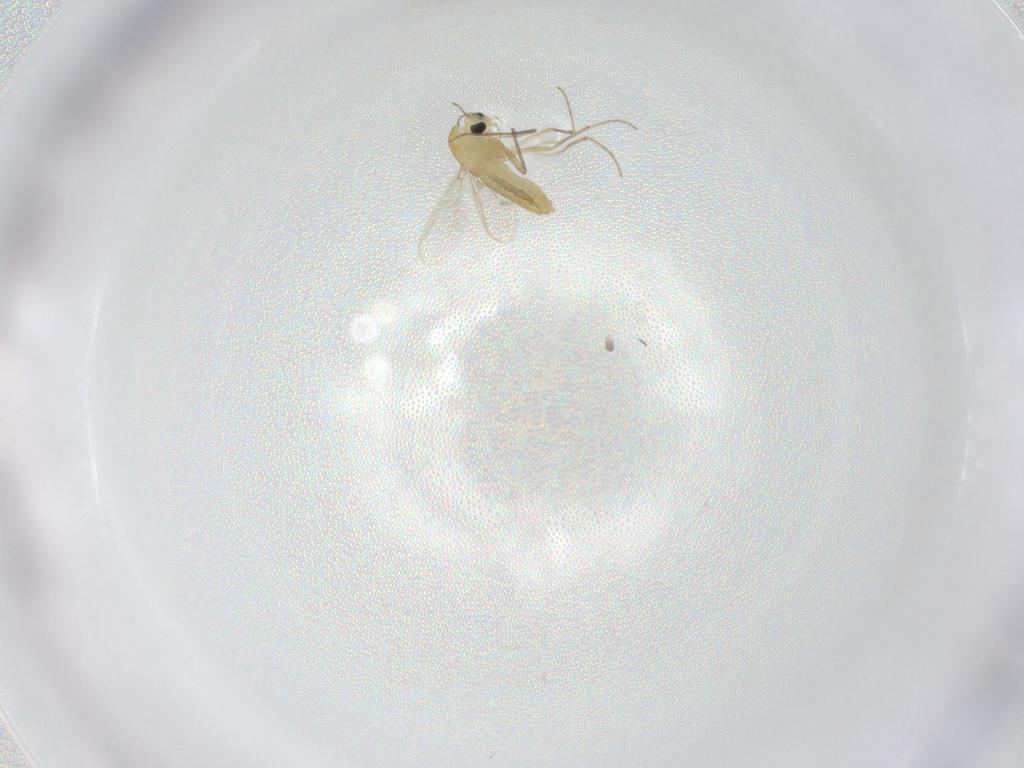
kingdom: Animalia
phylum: Arthropoda
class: Insecta
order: Diptera
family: Chironomidae
